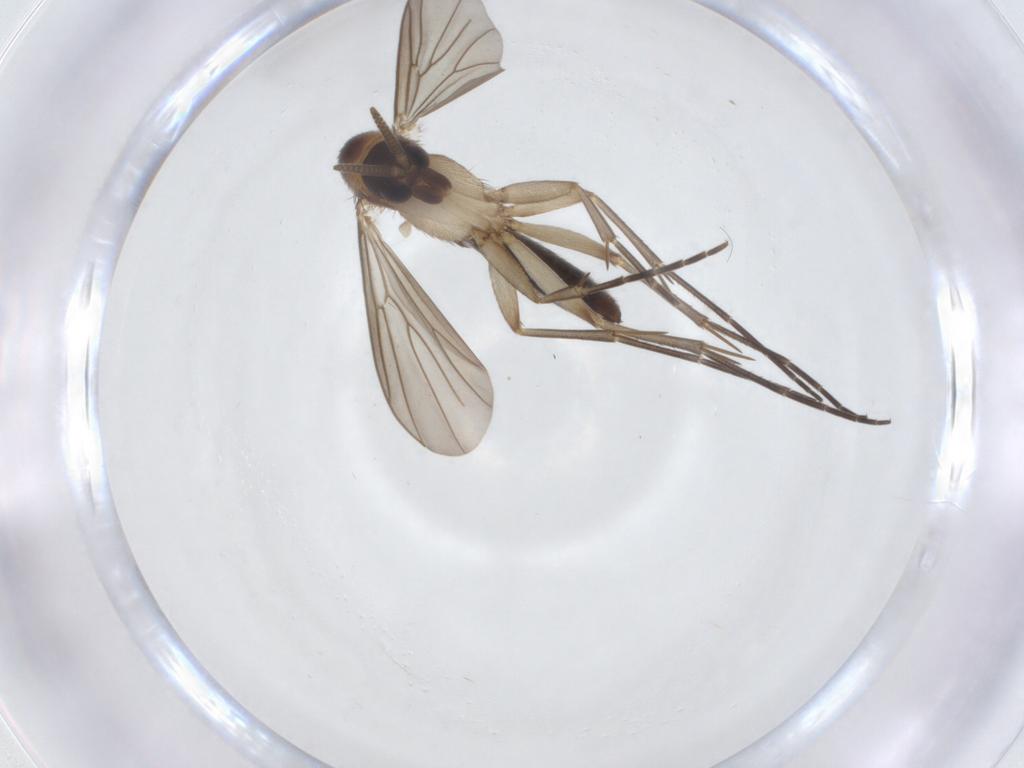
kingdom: Animalia
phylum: Arthropoda
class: Insecta
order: Diptera
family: Mycetophilidae
